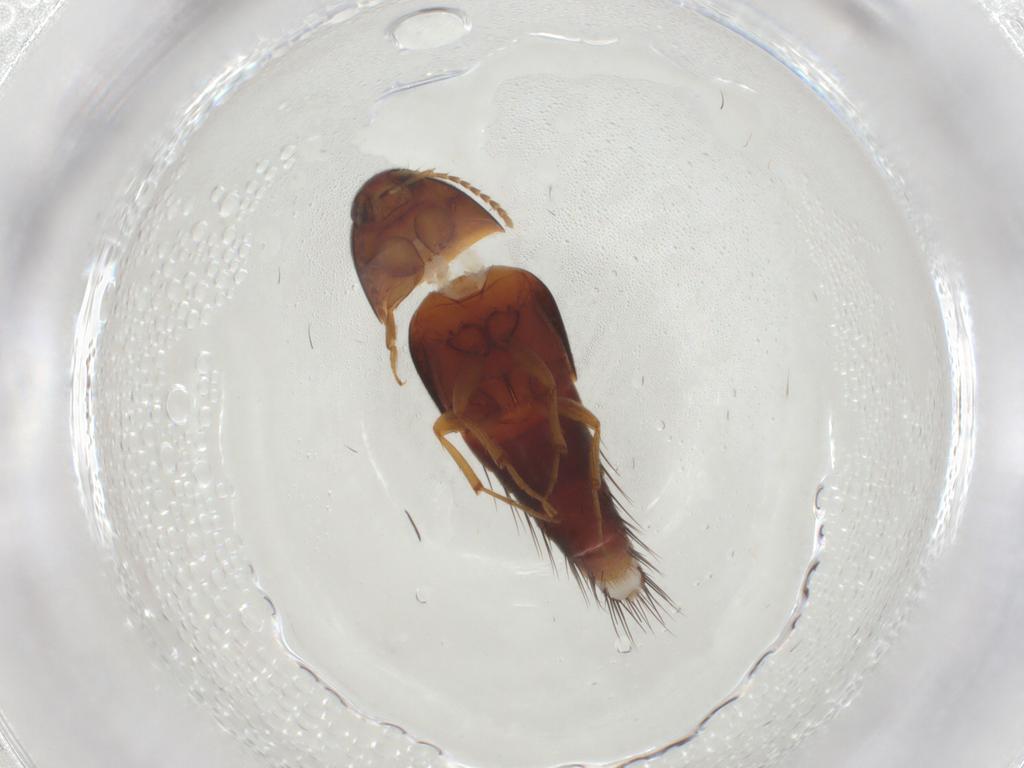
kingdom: Animalia
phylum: Arthropoda
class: Insecta
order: Coleoptera
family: Staphylinidae
